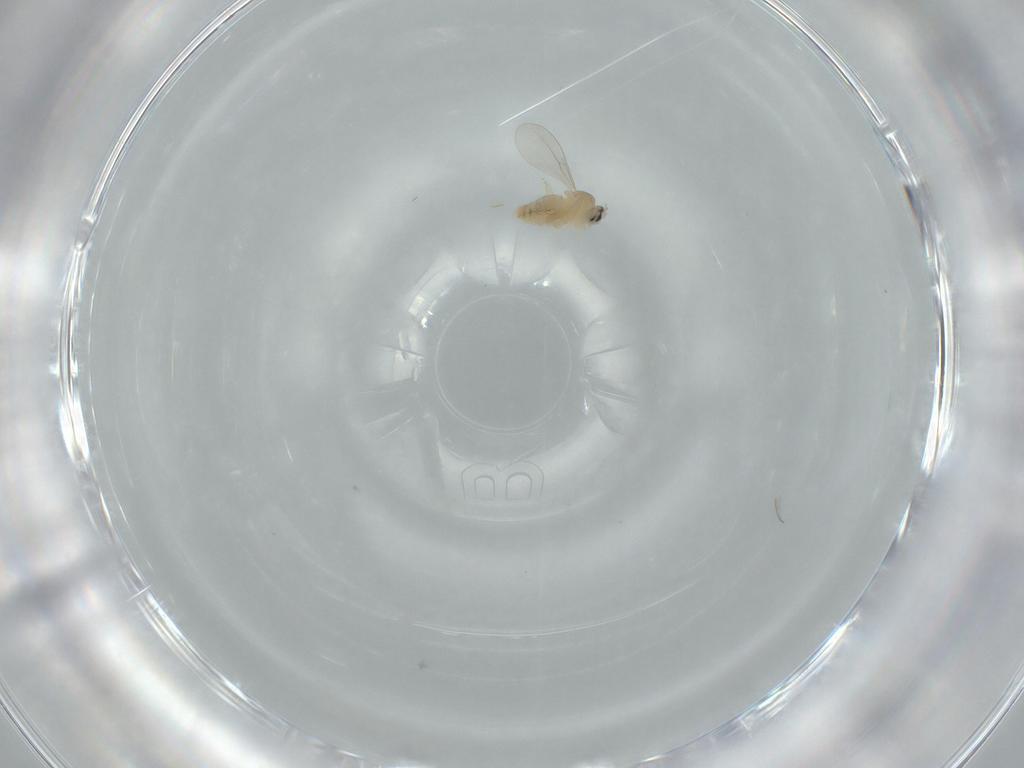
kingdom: Animalia
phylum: Arthropoda
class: Insecta
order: Diptera
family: Cecidomyiidae
